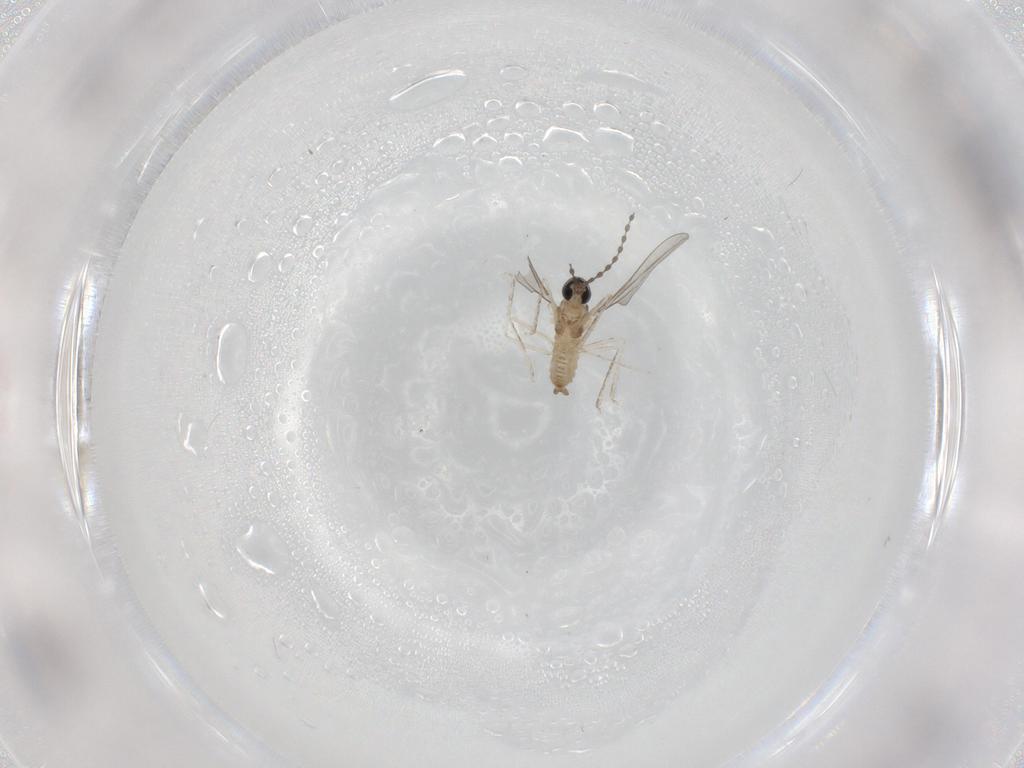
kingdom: Animalia
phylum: Arthropoda
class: Insecta
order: Diptera
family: Cecidomyiidae
